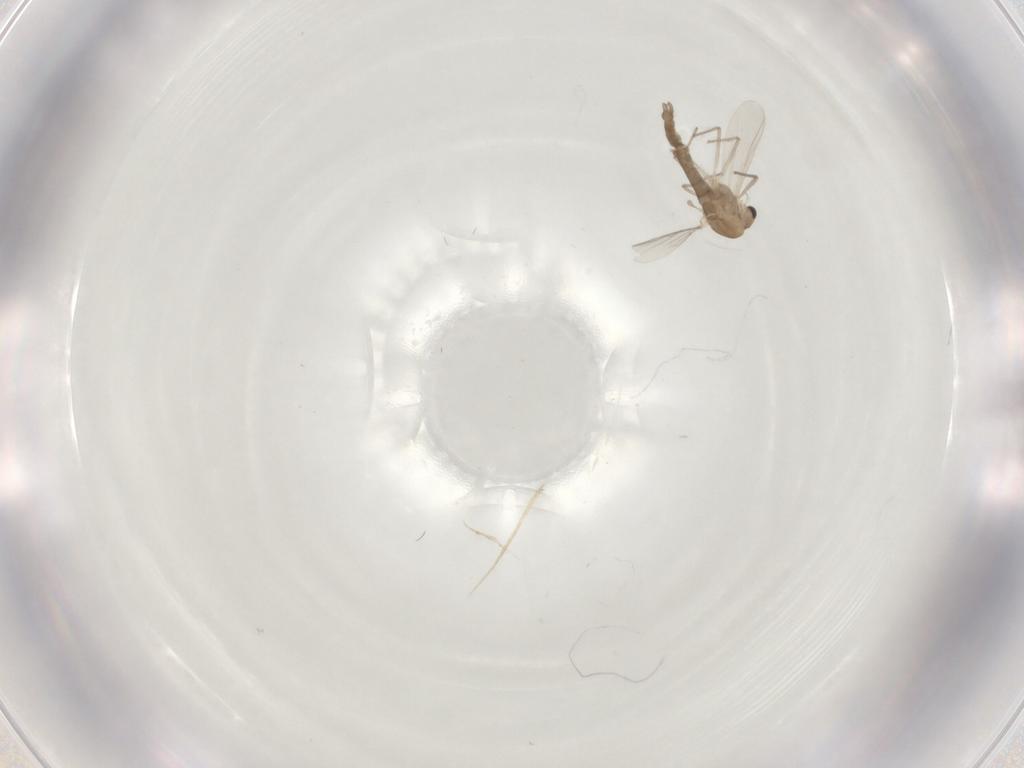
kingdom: Animalia
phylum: Arthropoda
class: Insecta
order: Diptera
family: Chironomidae
